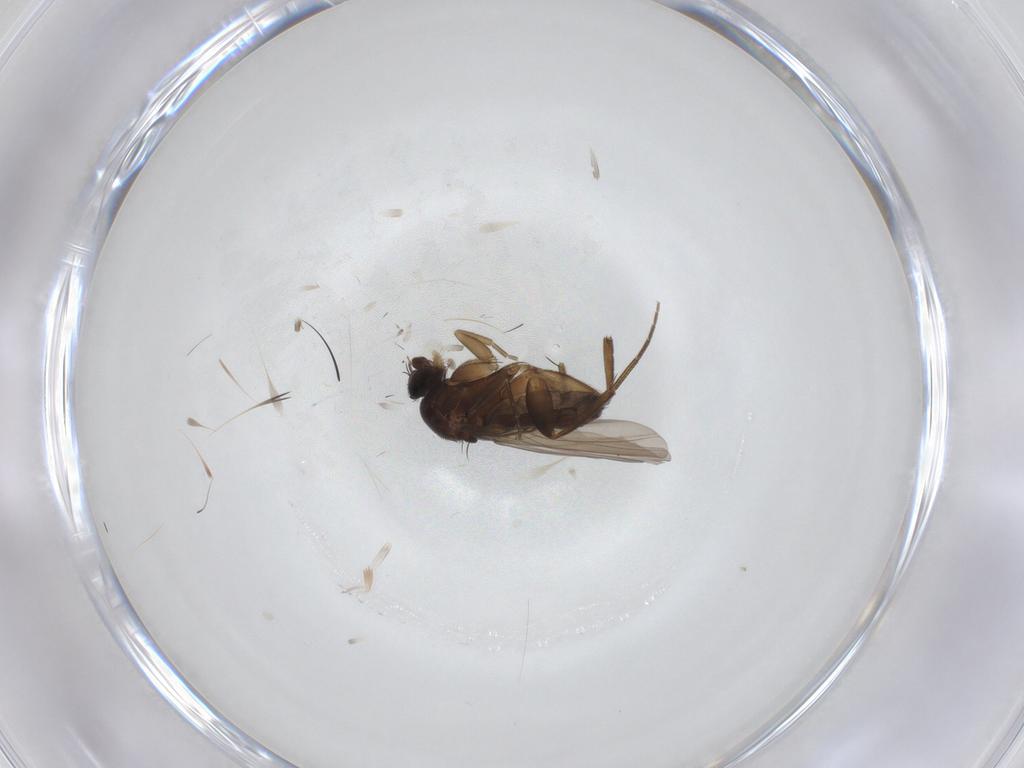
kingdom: Animalia
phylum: Arthropoda
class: Insecta
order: Diptera
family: Phoridae
